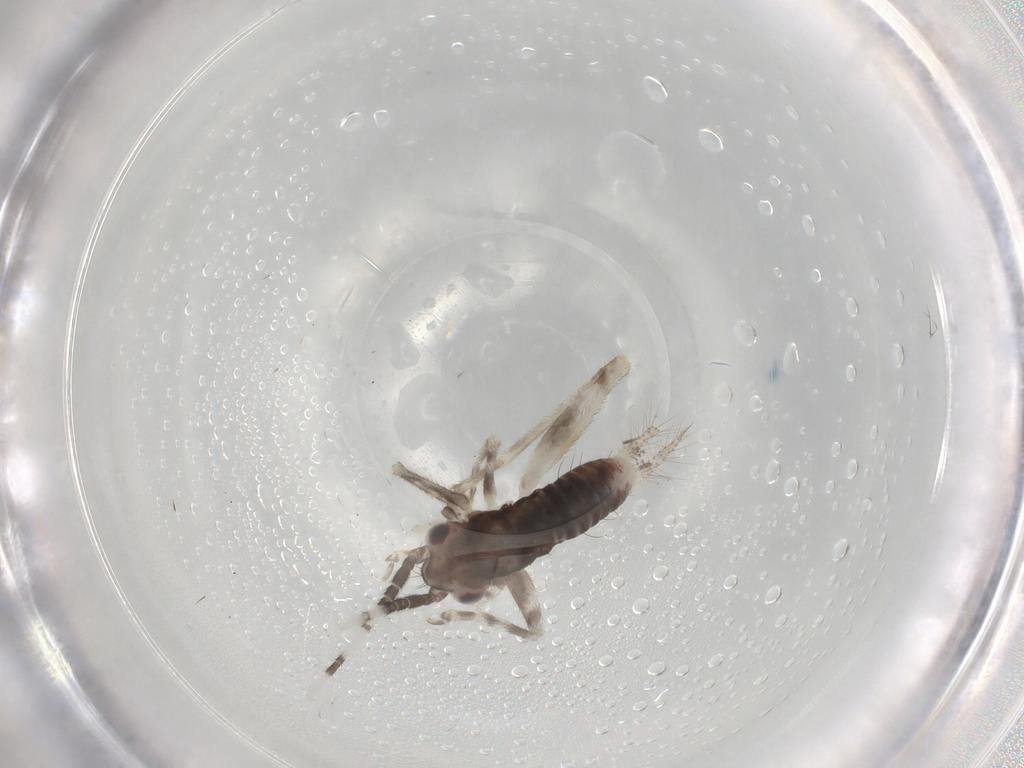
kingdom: Animalia
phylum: Arthropoda
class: Insecta
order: Orthoptera
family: Trigonidiidae
